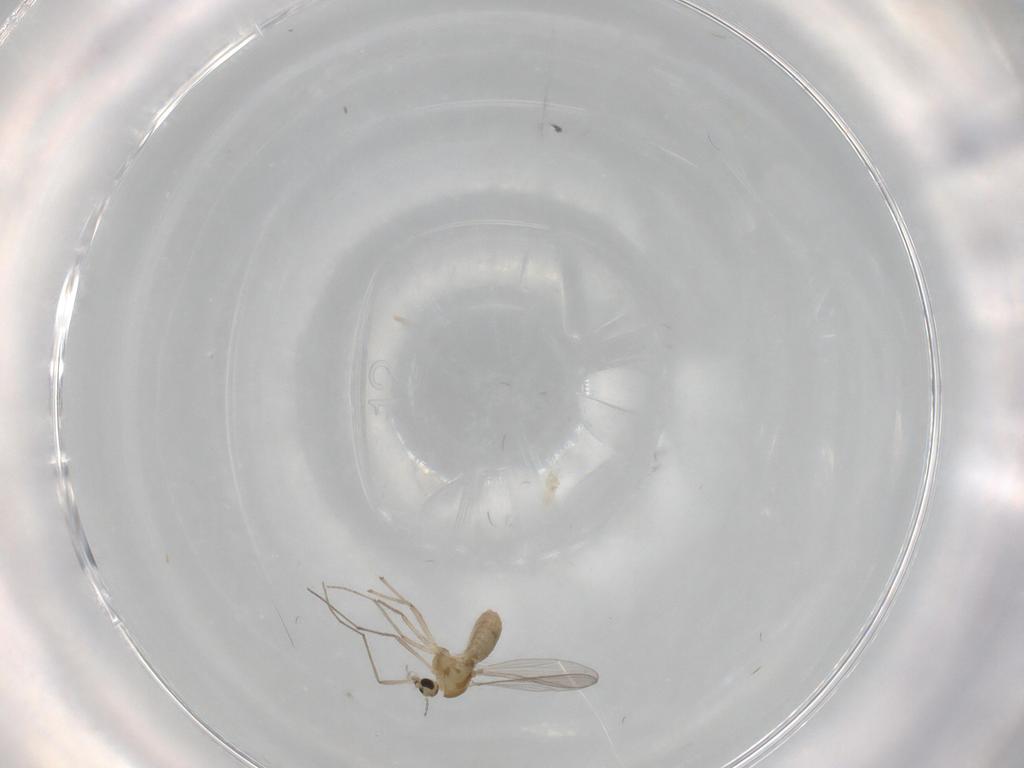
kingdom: Animalia
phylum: Arthropoda
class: Insecta
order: Diptera
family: Chironomidae
